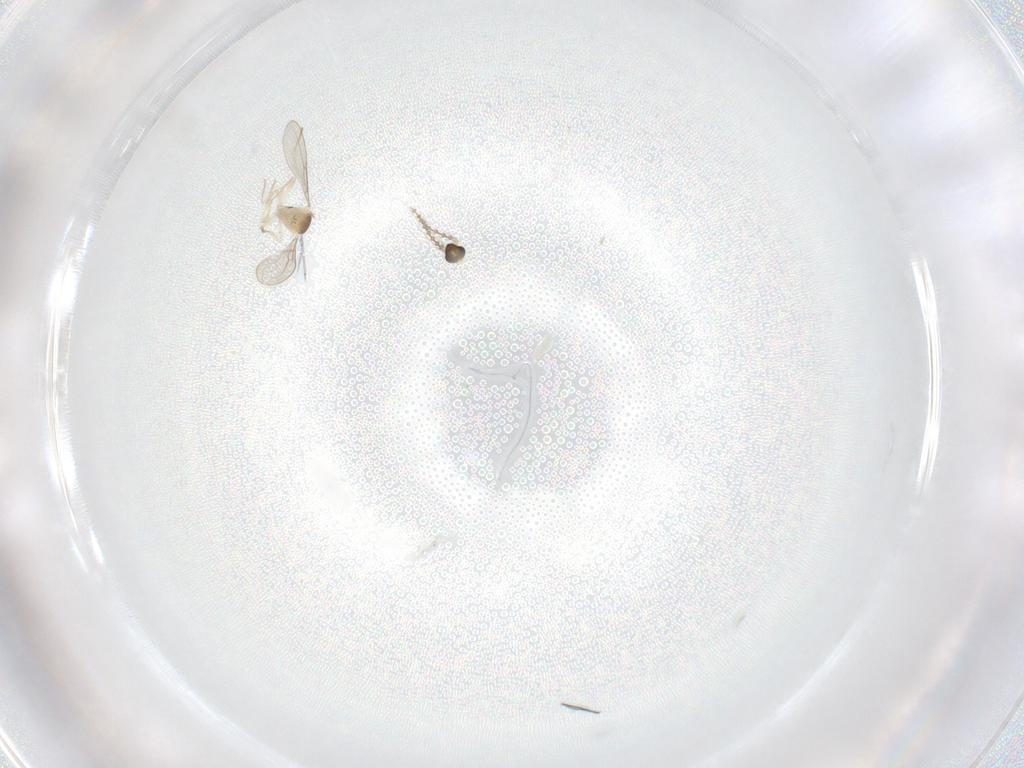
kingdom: Animalia
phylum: Arthropoda
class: Insecta
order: Diptera
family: Cecidomyiidae
